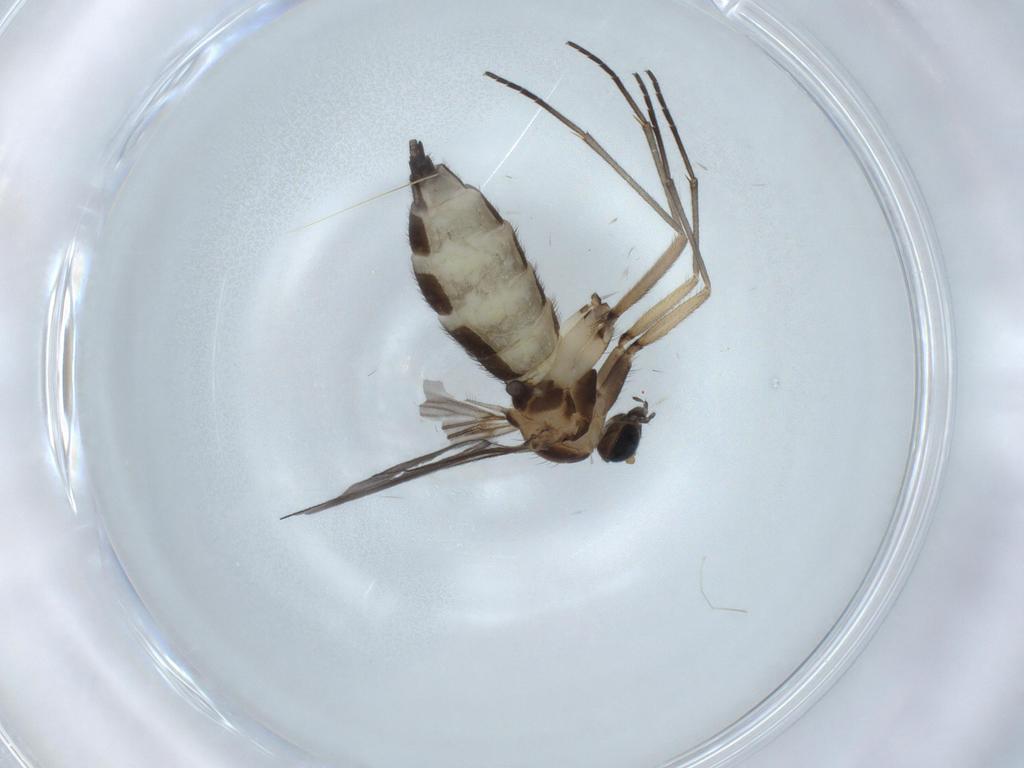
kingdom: Animalia
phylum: Arthropoda
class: Insecta
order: Diptera
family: Sciaridae
